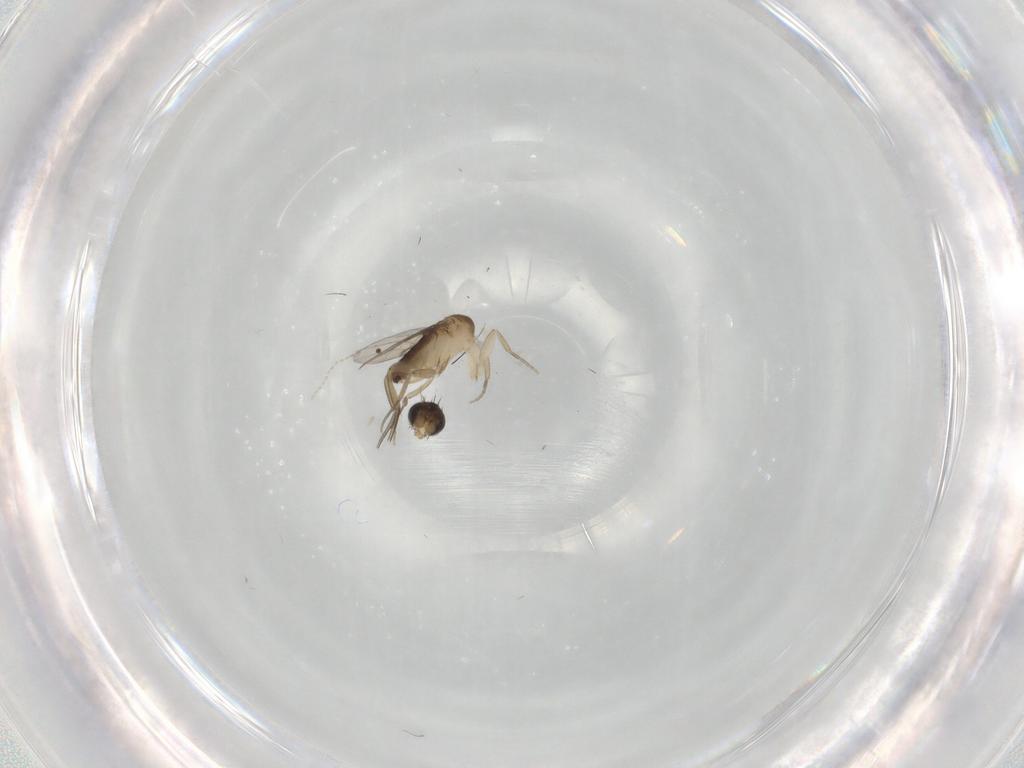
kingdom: Animalia
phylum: Arthropoda
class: Insecta
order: Diptera
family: Phoridae
